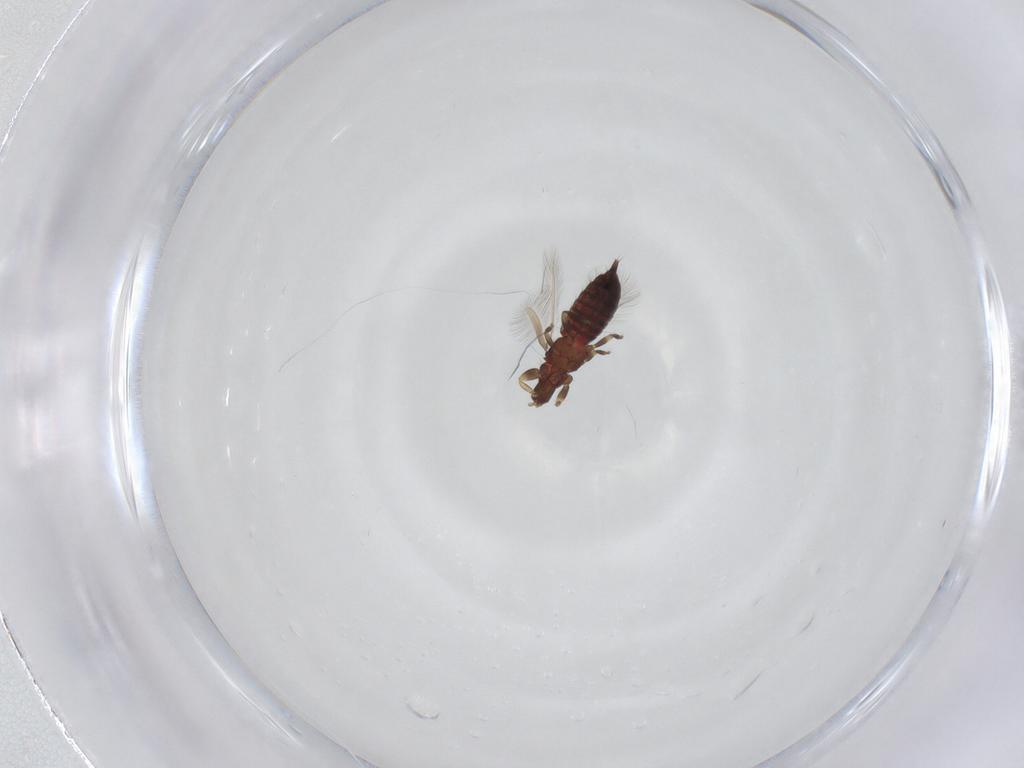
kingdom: Animalia
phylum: Arthropoda
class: Insecta
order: Thysanoptera
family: Phlaeothripidae
